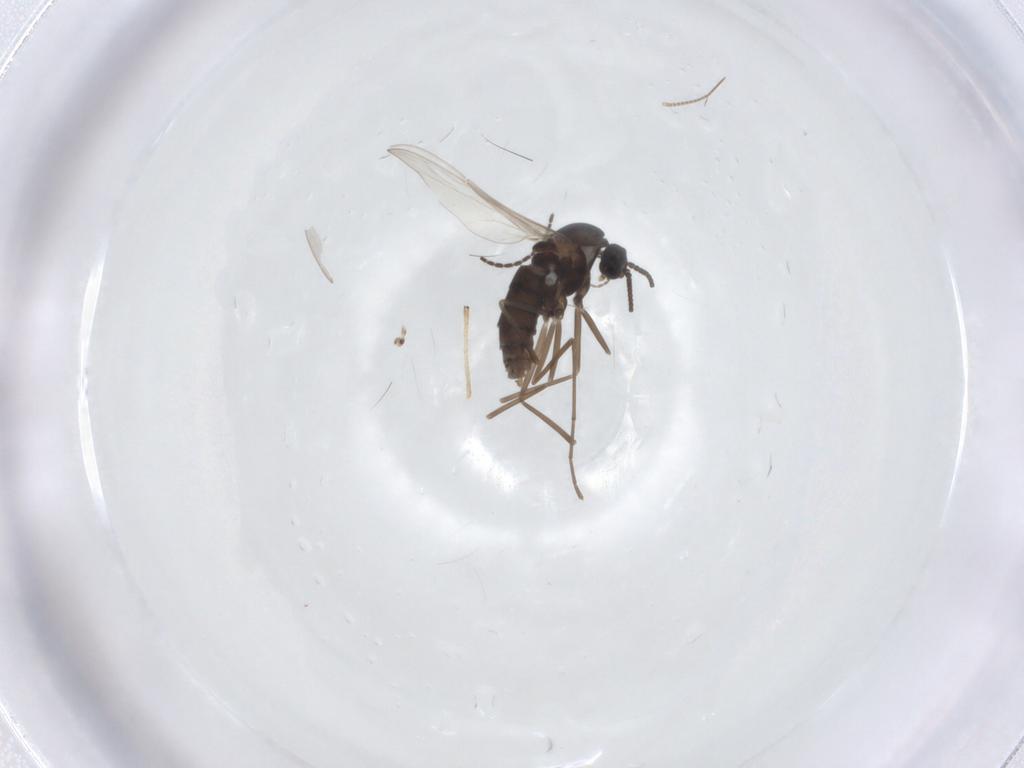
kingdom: Animalia
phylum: Arthropoda
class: Insecta
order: Diptera
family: Cecidomyiidae
